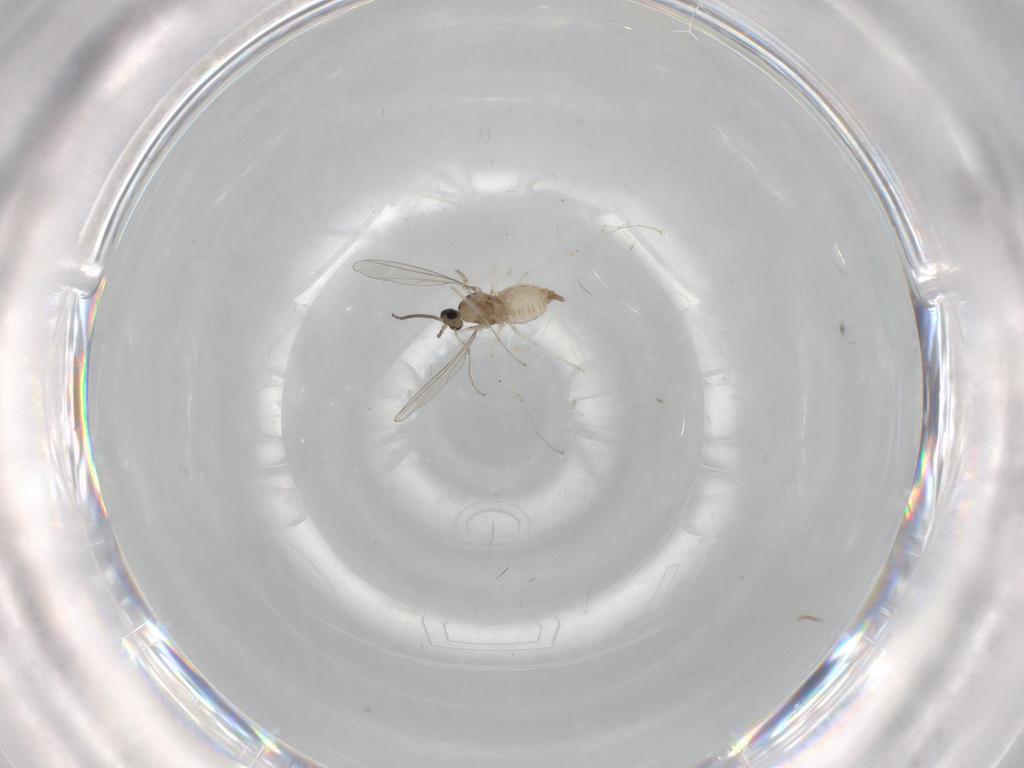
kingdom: Animalia
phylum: Arthropoda
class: Insecta
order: Diptera
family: Cecidomyiidae
